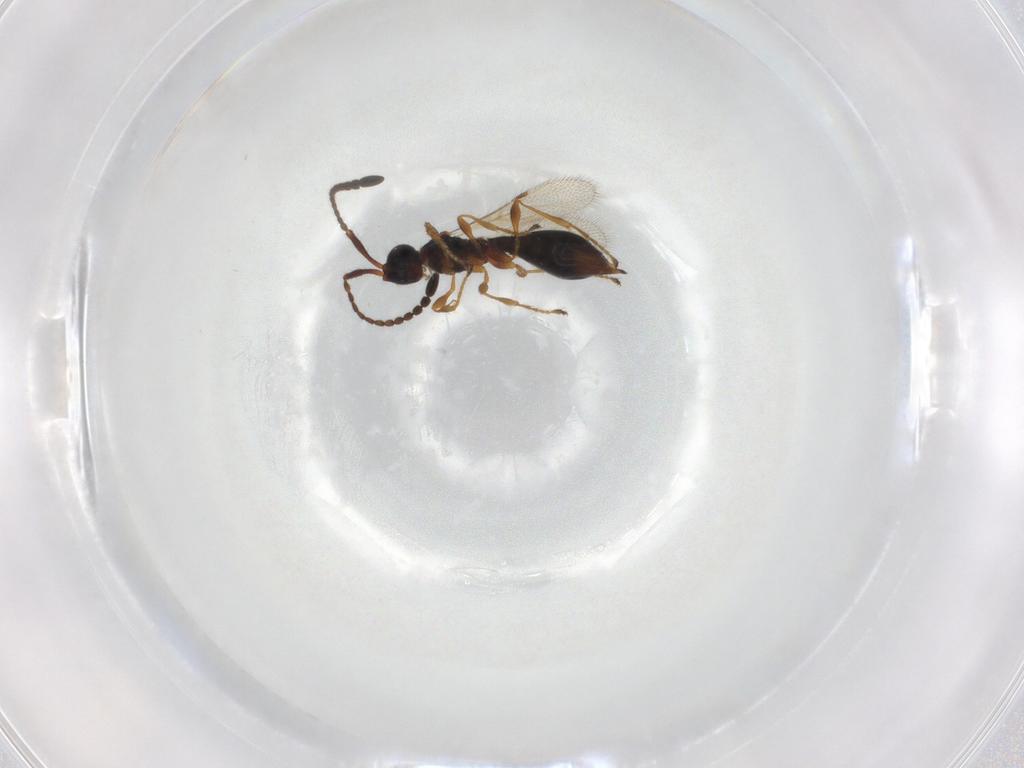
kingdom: Animalia
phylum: Arthropoda
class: Insecta
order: Hymenoptera
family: Diapriidae
